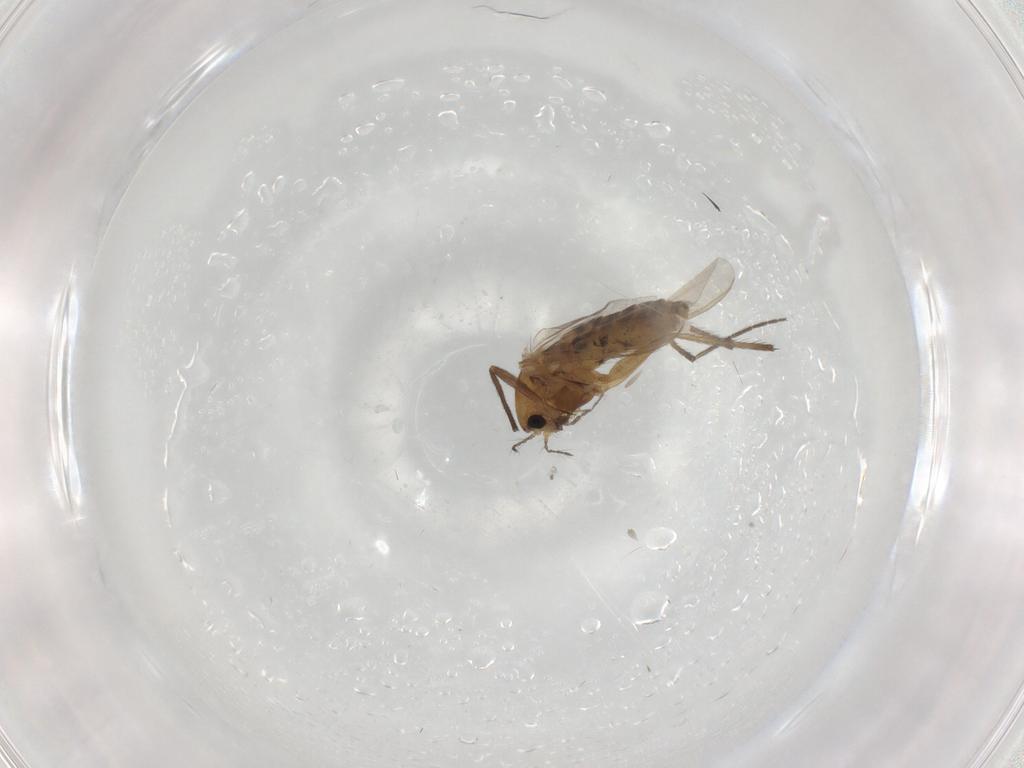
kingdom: Animalia
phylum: Arthropoda
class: Insecta
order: Diptera
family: Chironomidae
